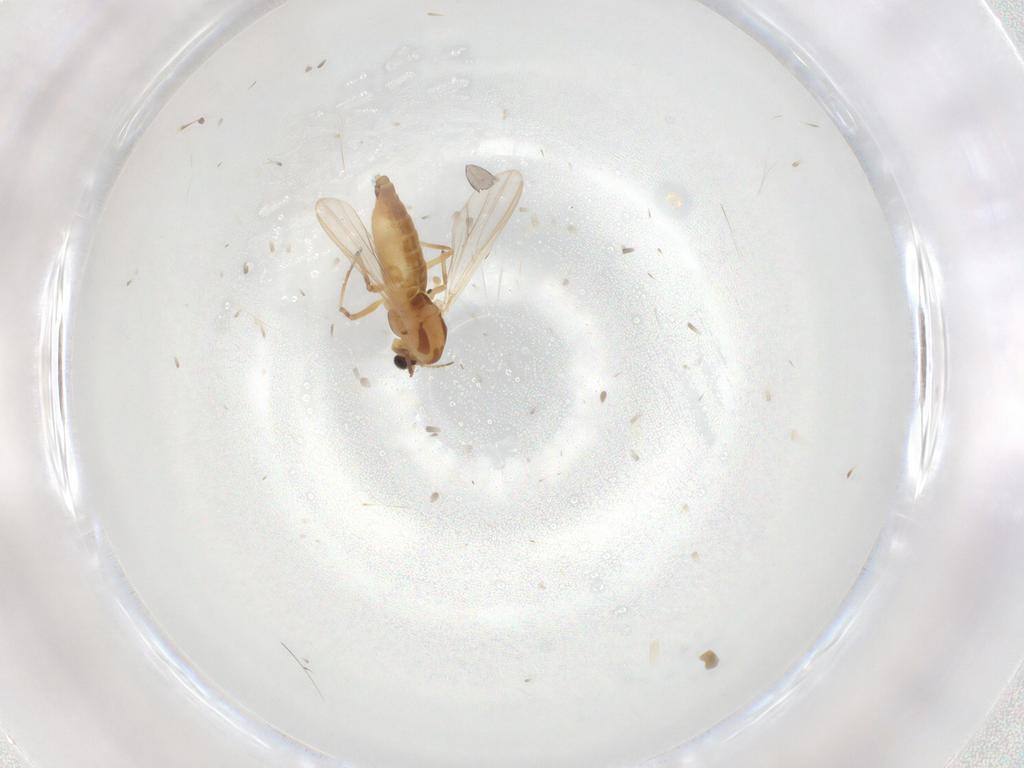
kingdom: Animalia
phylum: Arthropoda
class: Insecta
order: Diptera
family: Chironomidae
